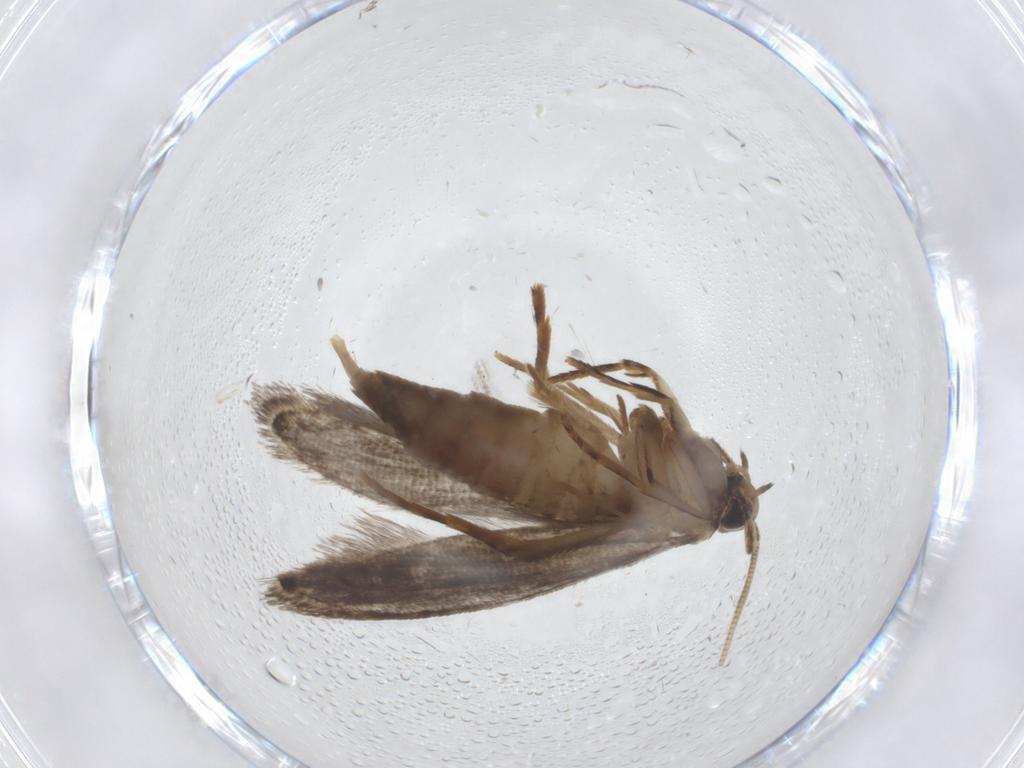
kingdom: Animalia
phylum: Arthropoda
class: Insecta
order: Lepidoptera
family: Tineidae
